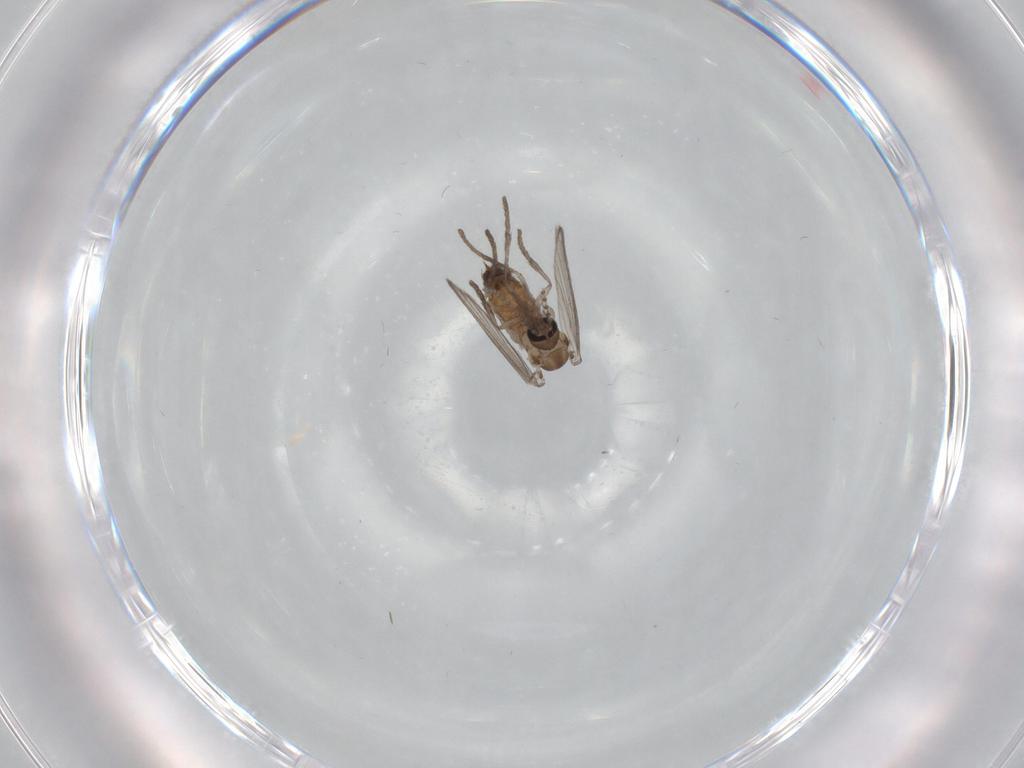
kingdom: Animalia
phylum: Arthropoda
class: Insecta
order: Diptera
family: Psychodidae
